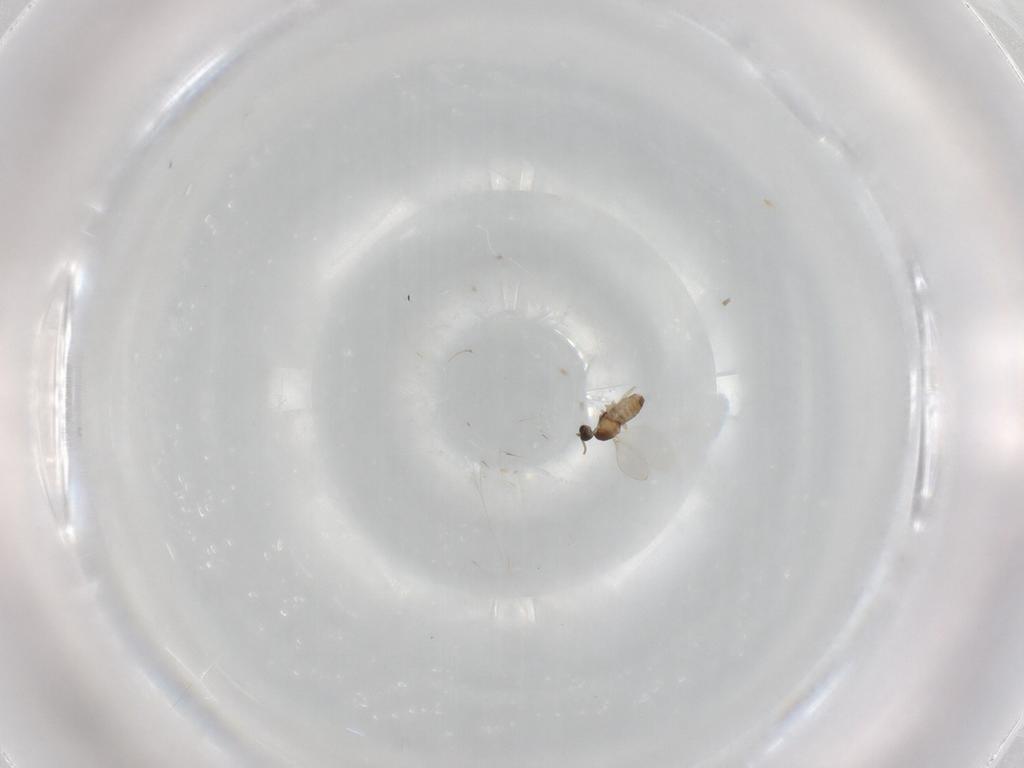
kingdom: Animalia
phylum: Arthropoda
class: Insecta
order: Diptera
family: Cecidomyiidae
